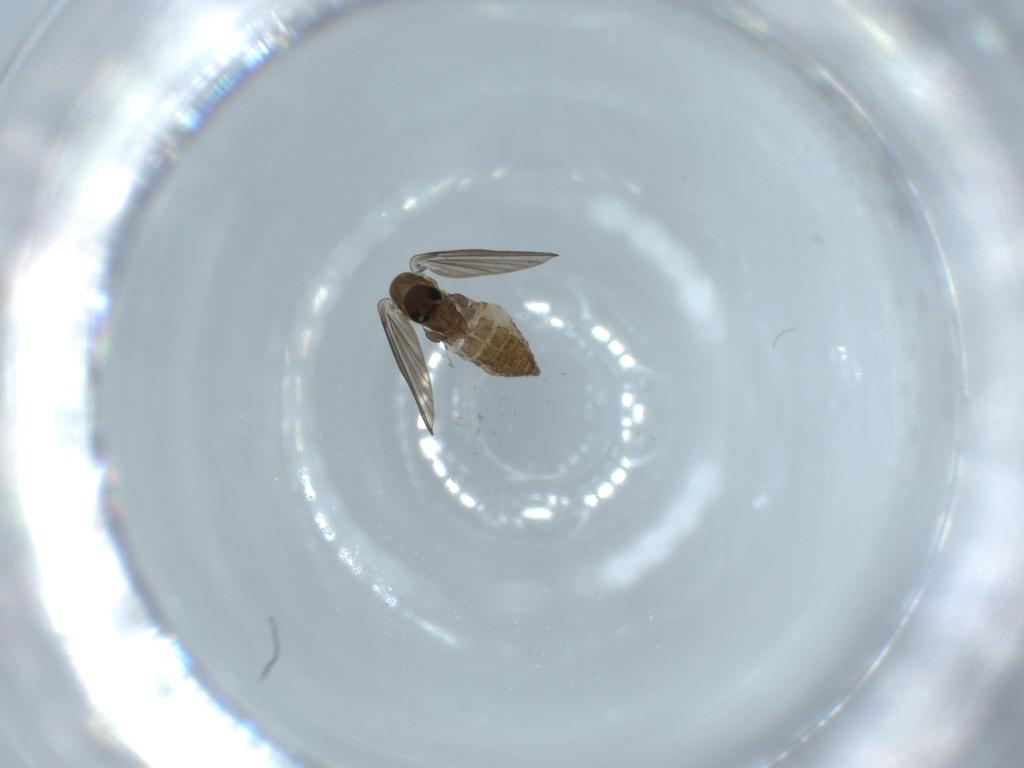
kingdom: Animalia
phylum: Arthropoda
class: Insecta
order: Diptera
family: Psychodidae
